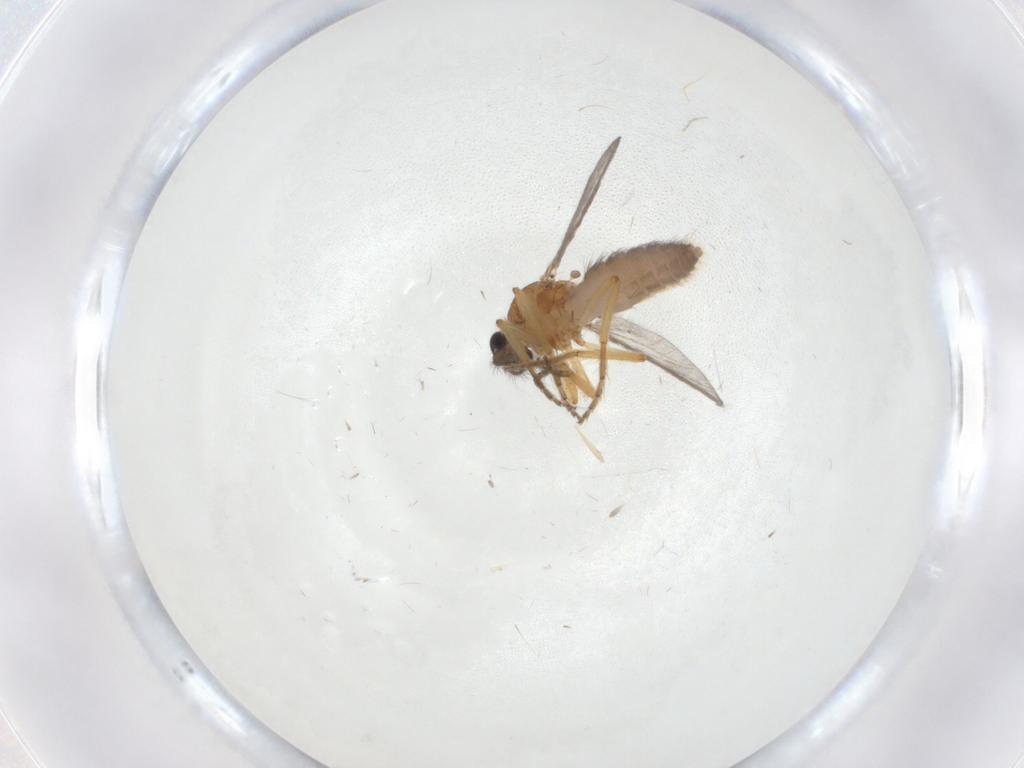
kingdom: Animalia
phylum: Arthropoda
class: Insecta
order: Diptera
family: Ceratopogonidae
